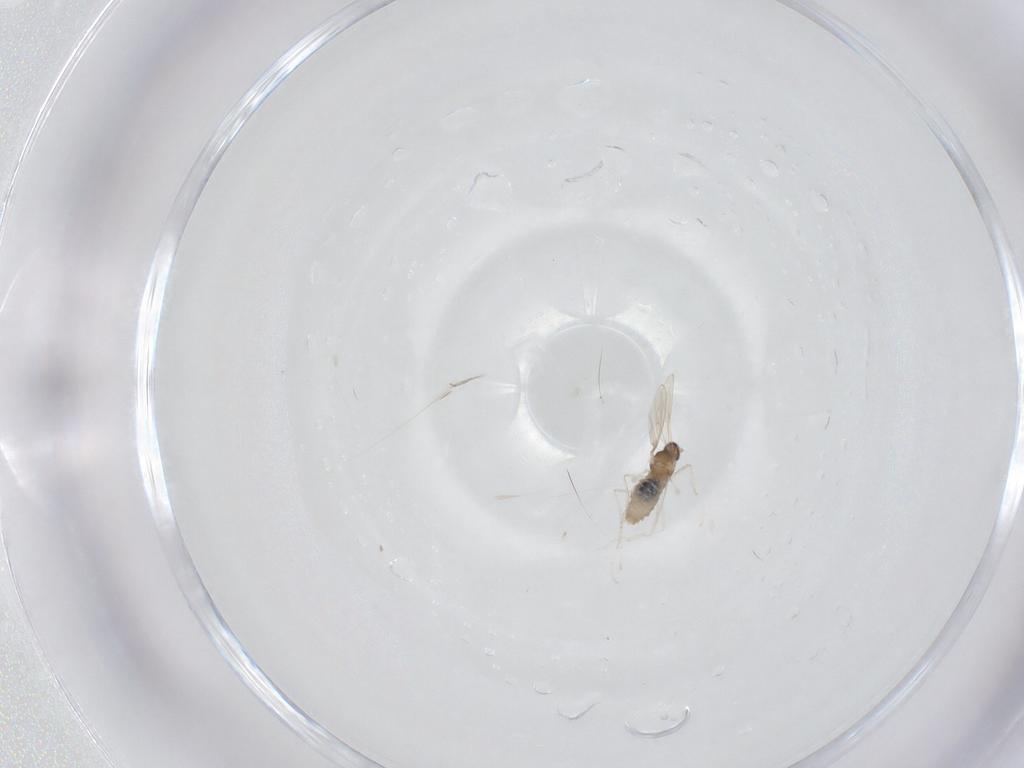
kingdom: Animalia
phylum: Arthropoda
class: Insecta
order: Diptera
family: Cecidomyiidae
